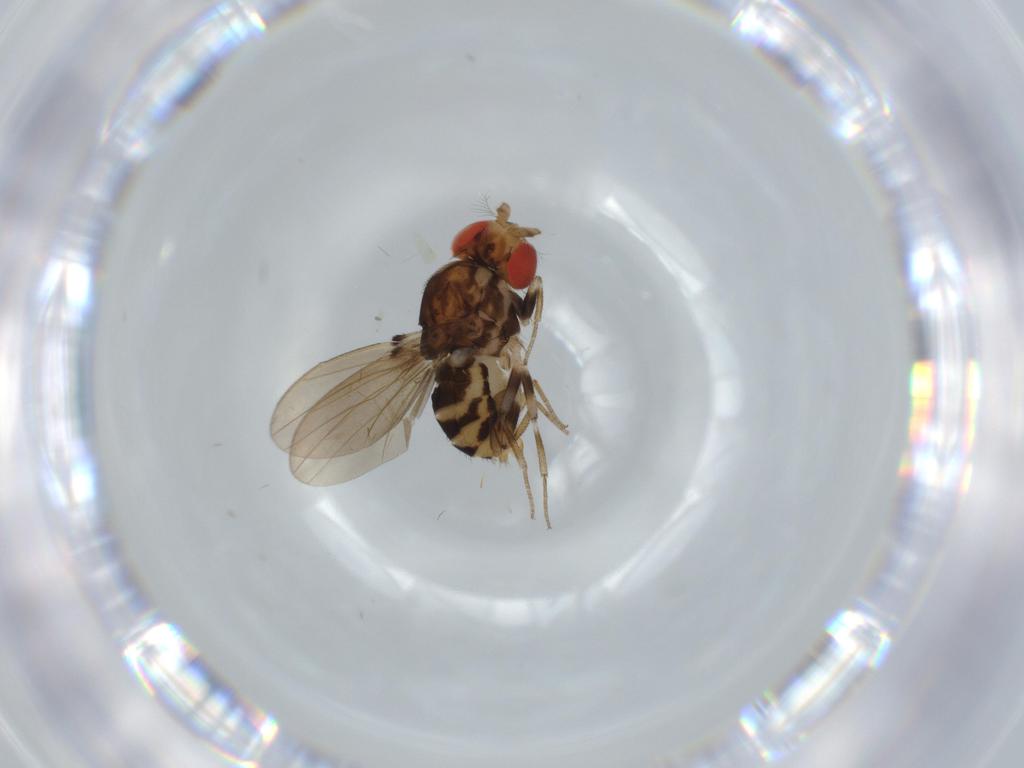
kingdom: Animalia
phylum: Arthropoda
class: Insecta
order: Diptera
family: Drosophilidae
